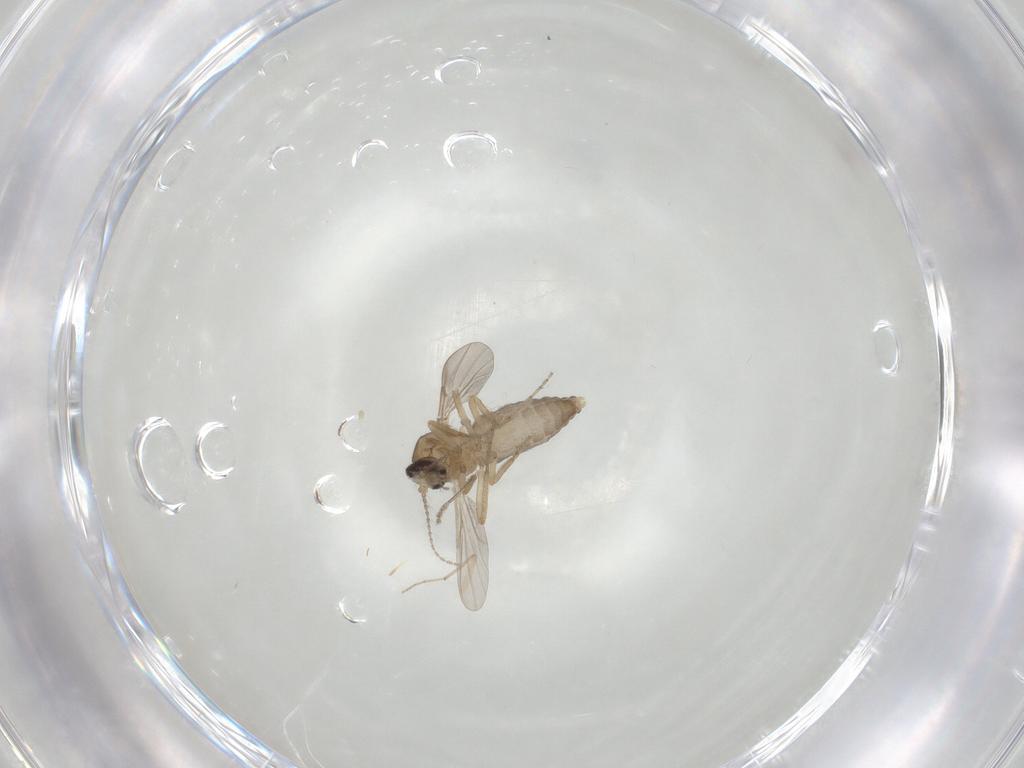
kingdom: Animalia
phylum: Arthropoda
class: Insecta
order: Diptera
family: Ceratopogonidae
